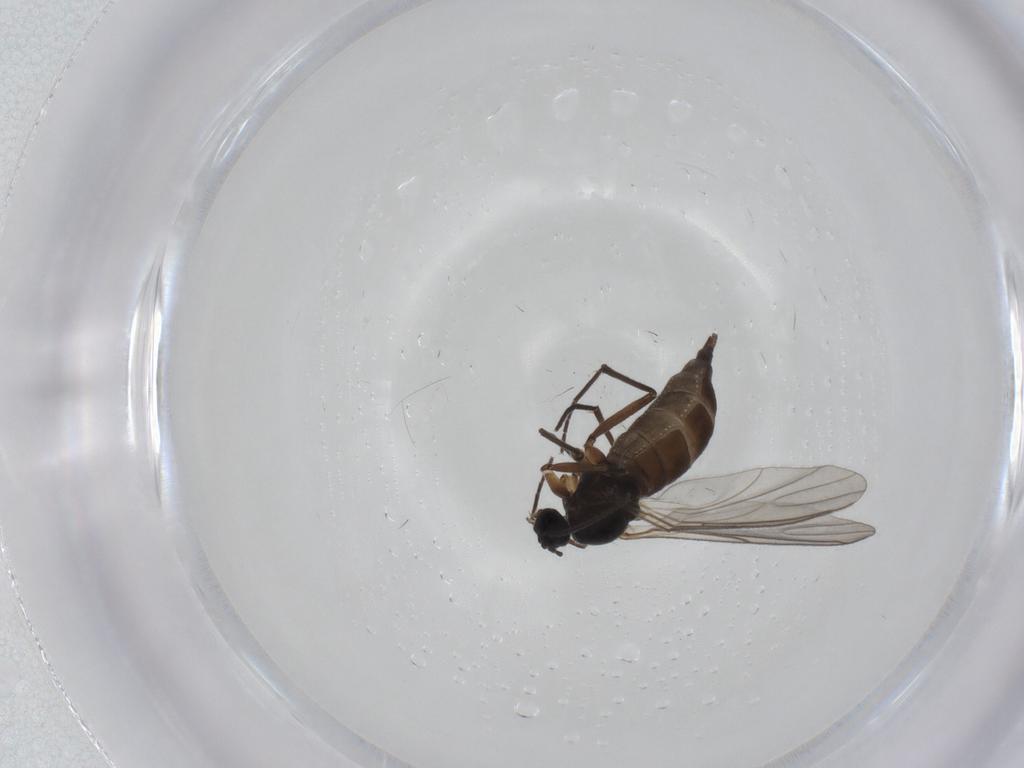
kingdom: Animalia
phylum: Arthropoda
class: Insecta
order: Diptera
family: Sciaridae
